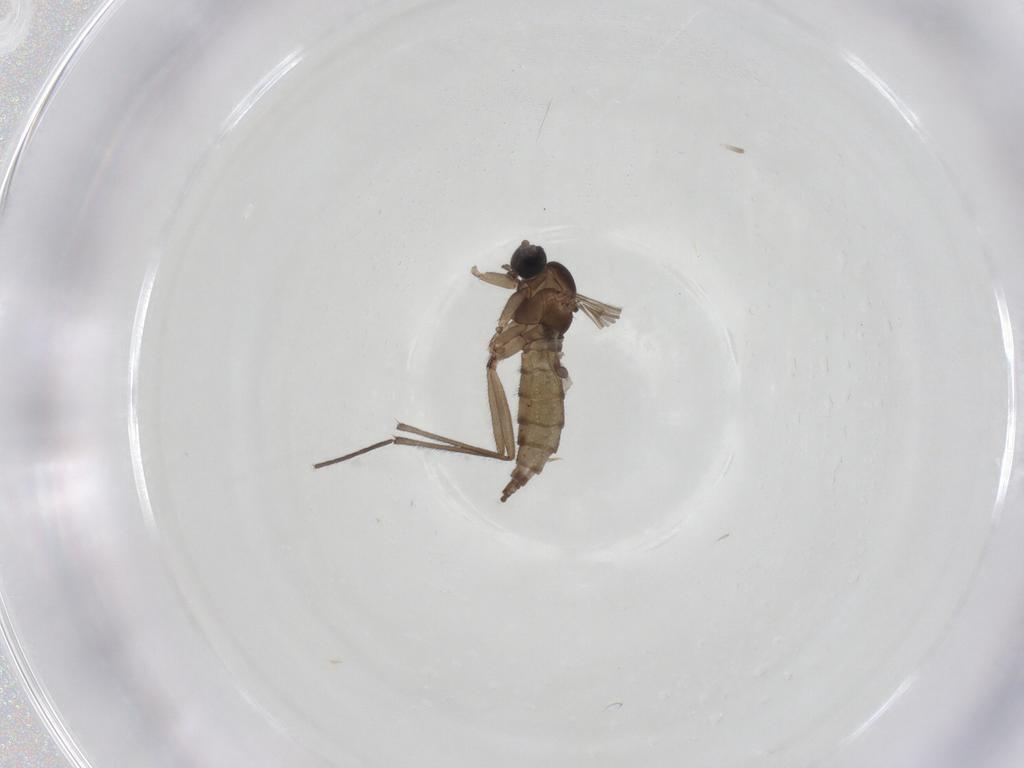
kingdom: Animalia
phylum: Arthropoda
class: Insecta
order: Diptera
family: Sciaridae
